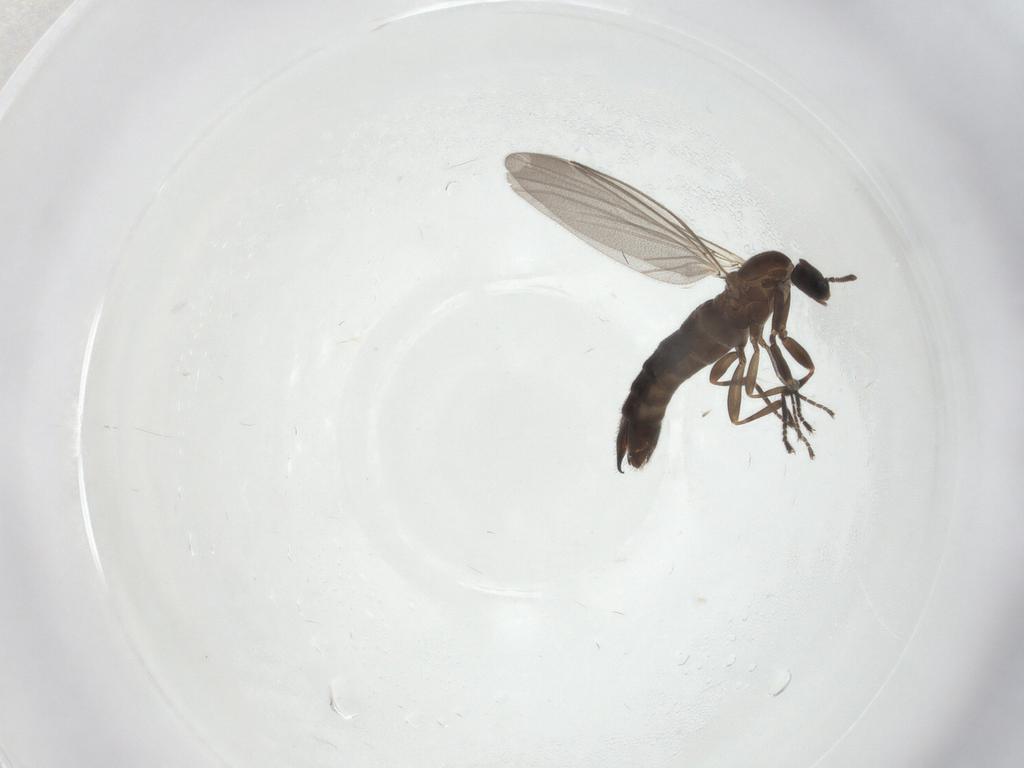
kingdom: Animalia
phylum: Arthropoda
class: Insecta
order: Diptera
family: Scatopsidae
